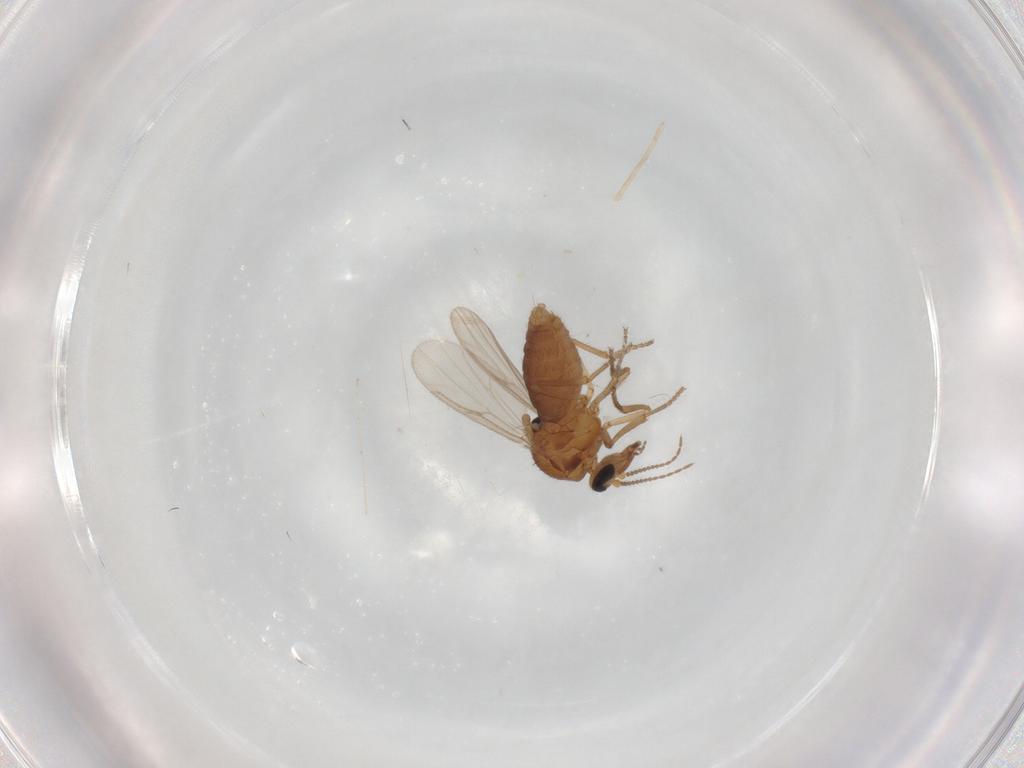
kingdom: Animalia
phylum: Arthropoda
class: Insecta
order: Diptera
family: Ceratopogonidae
